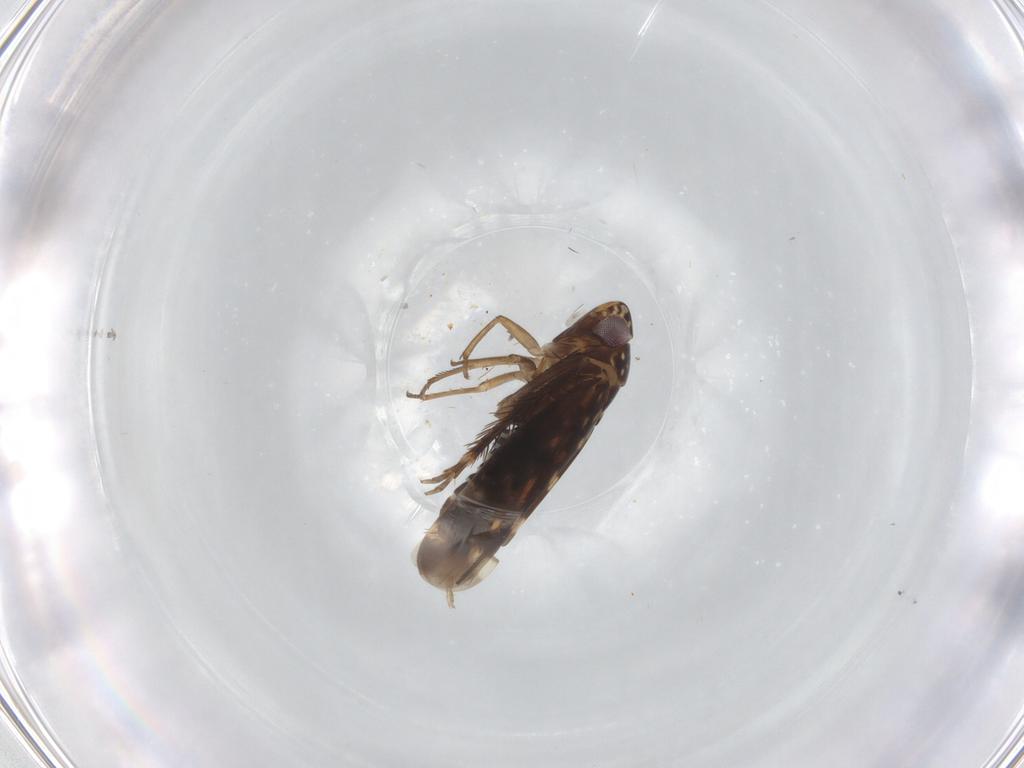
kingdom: Animalia
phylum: Arthropoda
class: Insecta
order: Hemiptera
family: Cicadellidae
